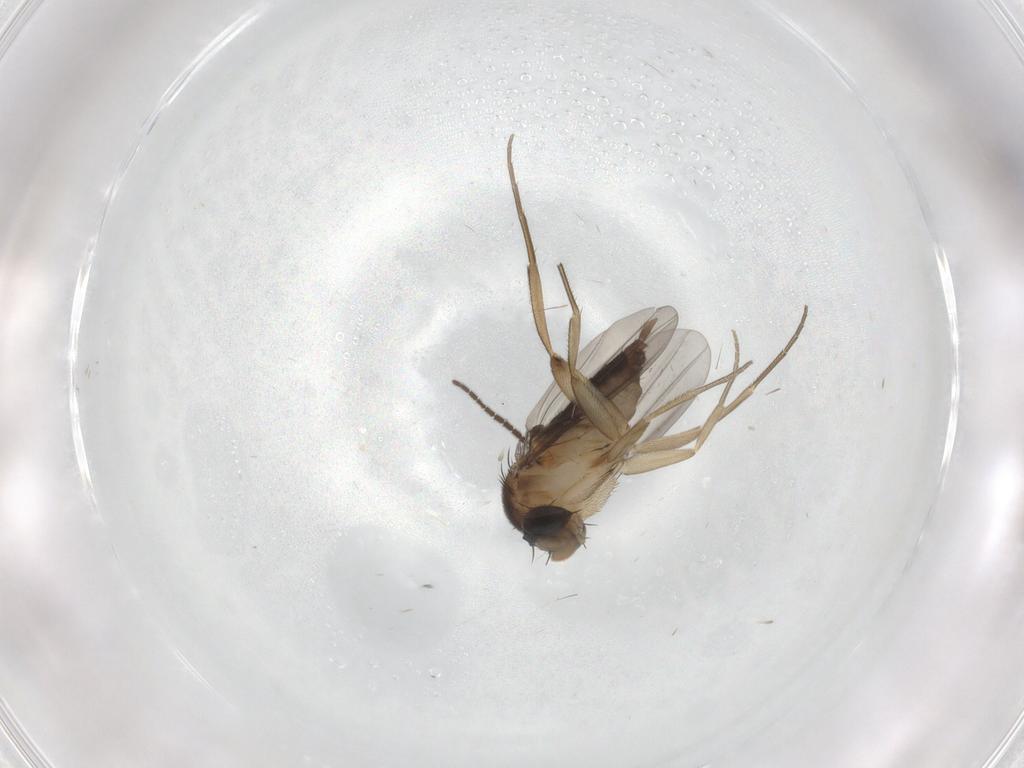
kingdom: Animalia
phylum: Arthropoda
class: Insecta
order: Diptera
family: Phoridae
